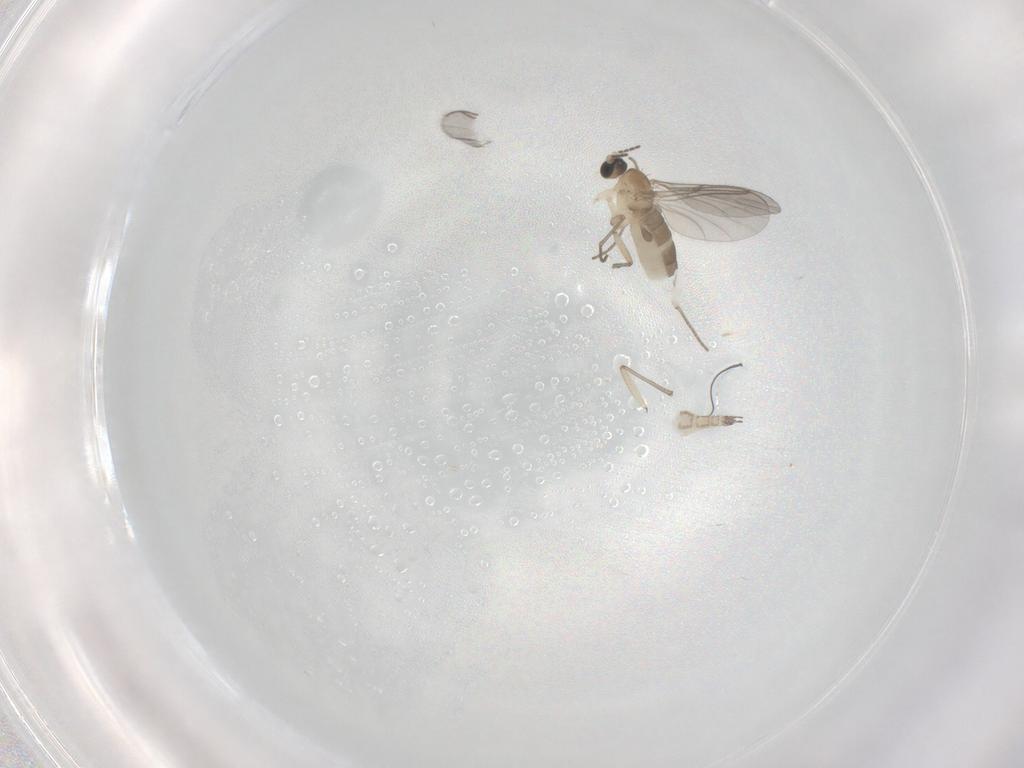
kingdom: Animalia
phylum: Arthropoda
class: Insecta
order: Diptera
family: Sciaridae
